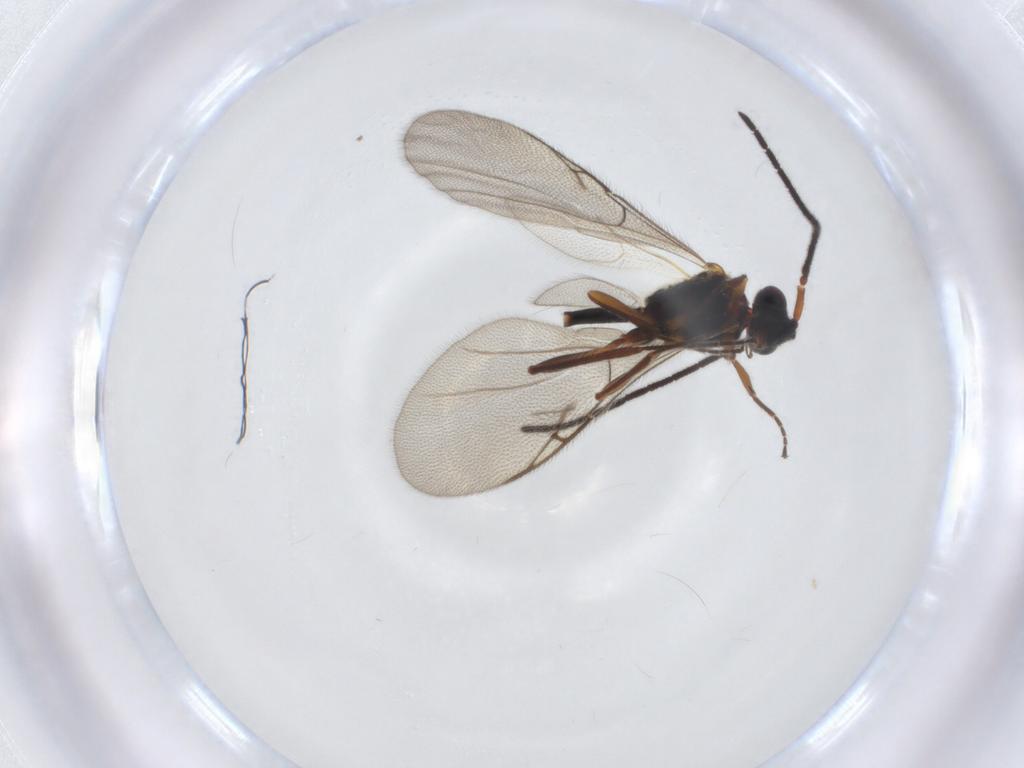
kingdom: Animalia
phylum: Arthropoda
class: Insecta
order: Hymenoptera
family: Diapriidae
